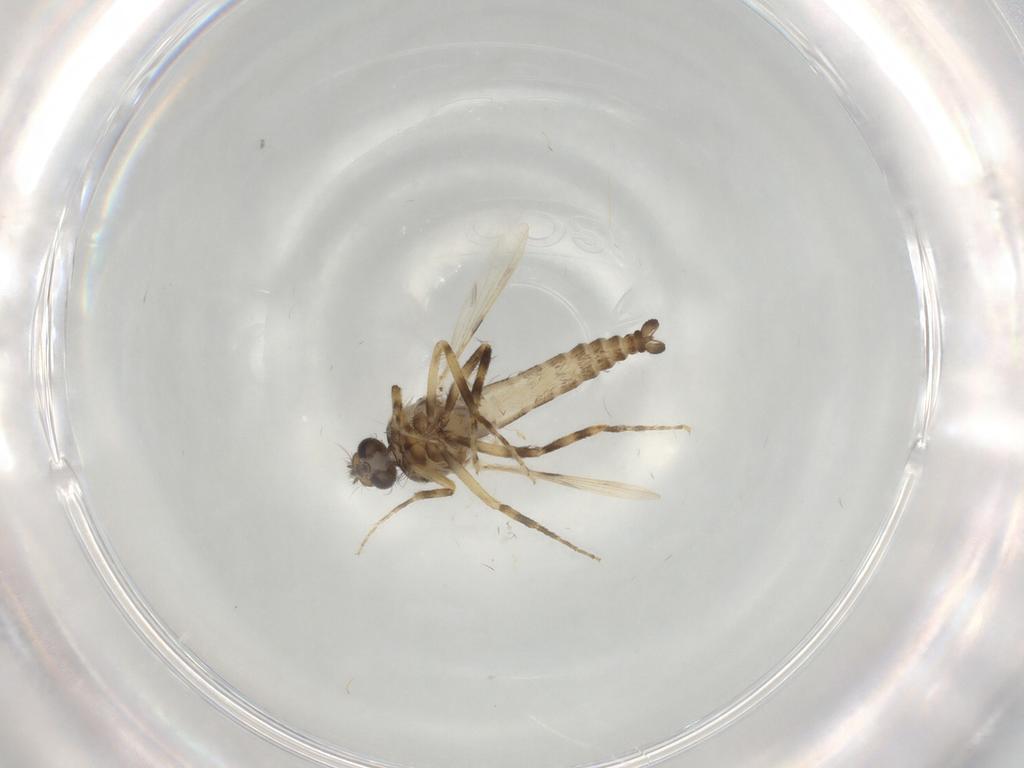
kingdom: Animalia
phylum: Arthropoda
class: Insecta
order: Diptera
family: Ceratopogonidae
